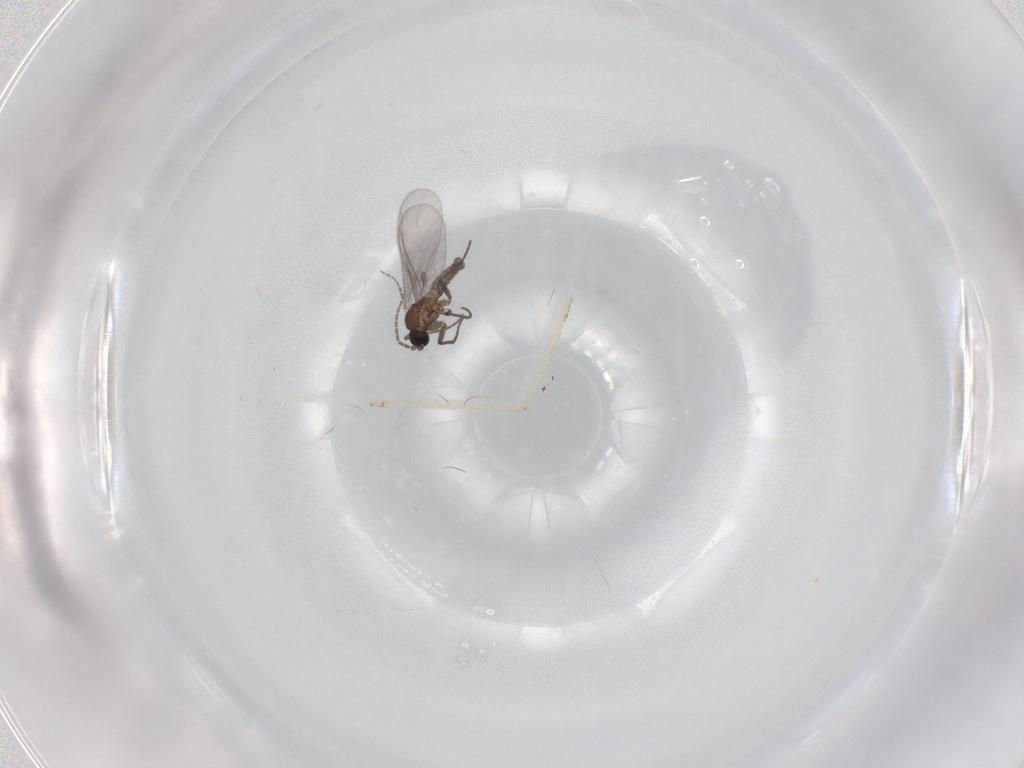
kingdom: Animalia
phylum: Arthropoda
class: Insecta
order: Diptera
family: Cecidomyiidae
